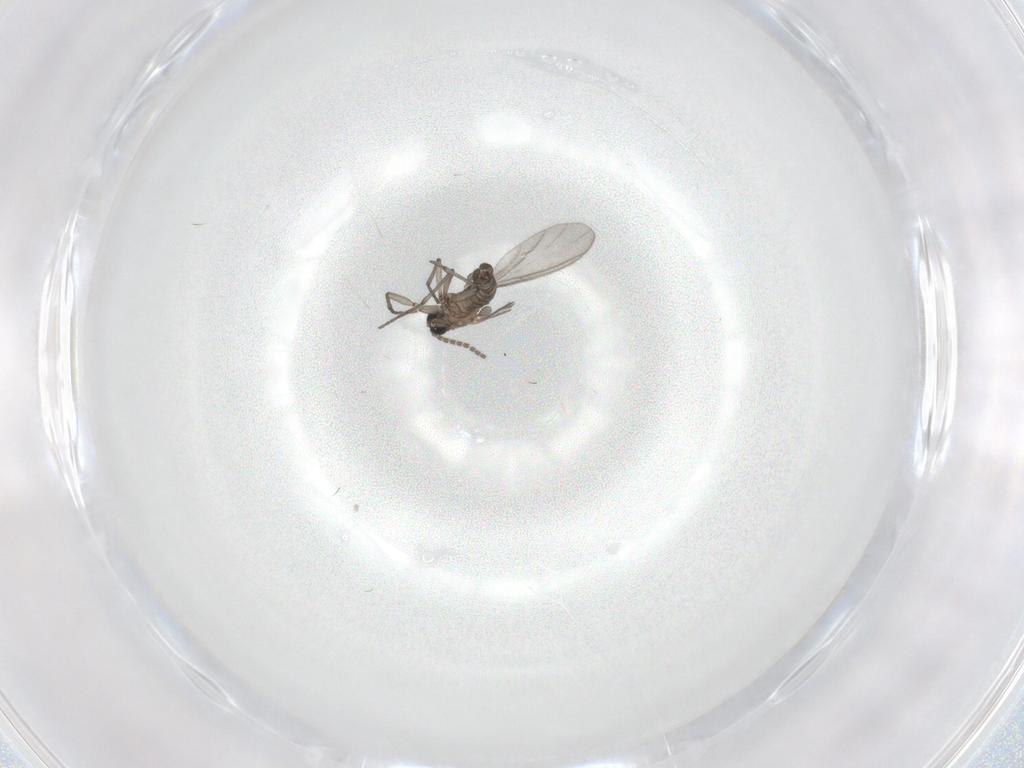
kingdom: Animalia
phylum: Arthropoda
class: Insecta
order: Diptera
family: Sciaridae
